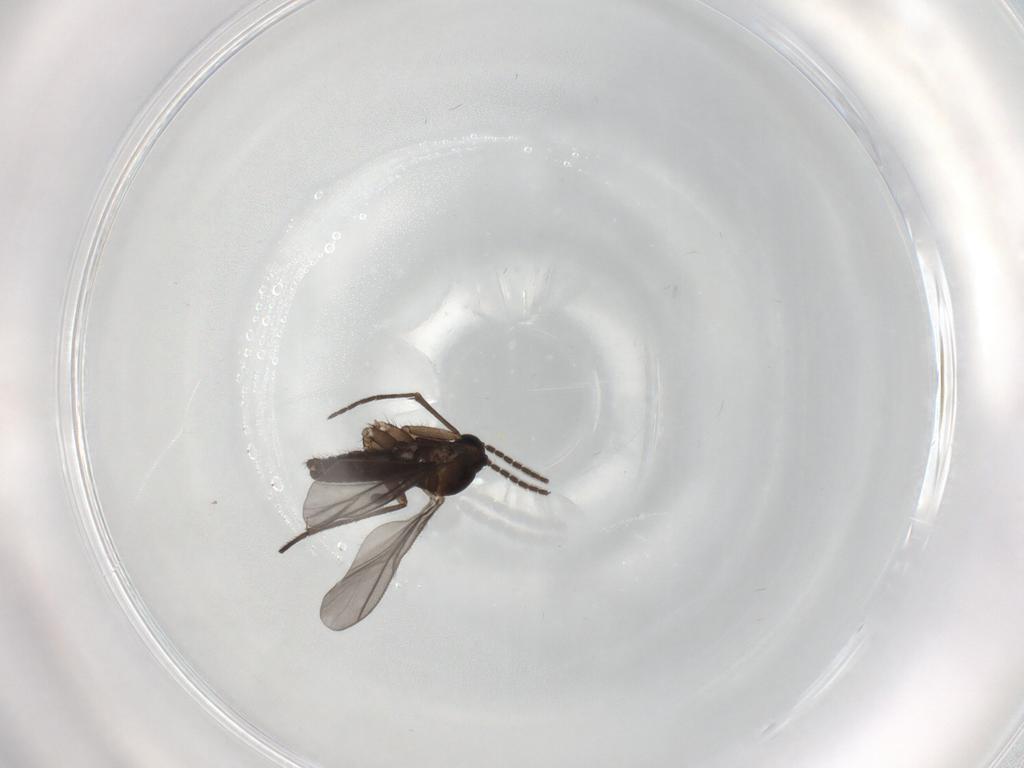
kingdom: Animalia
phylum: Arthropoda
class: Insecta
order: Diptera
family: Sciaridae
